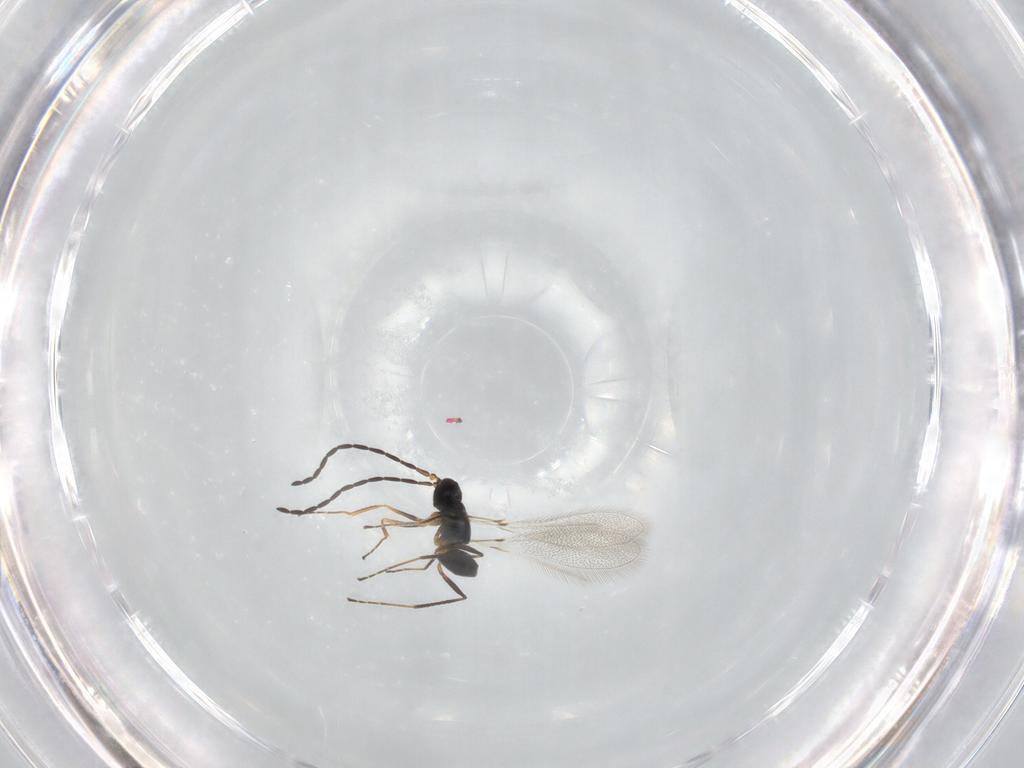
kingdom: Animalia
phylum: Arthropoda
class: Insecta
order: Hymenoptera
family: Mymaridae
